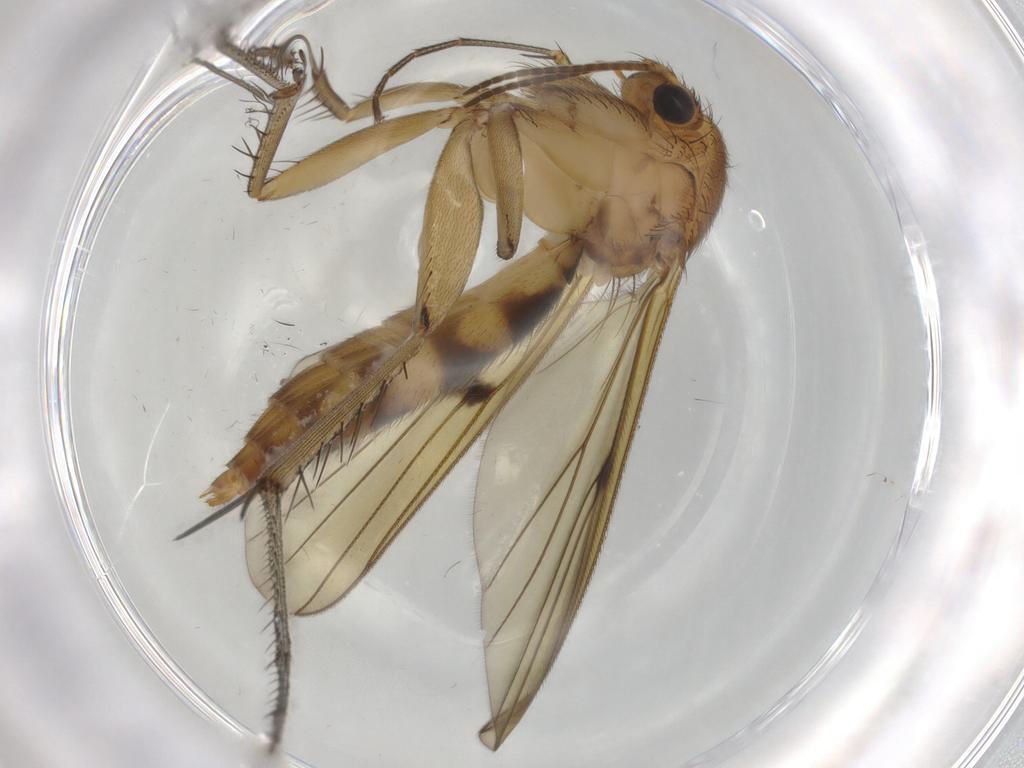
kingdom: Animalia
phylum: Arthropoda
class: Insecta
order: Diptera
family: Mycetophilidae
